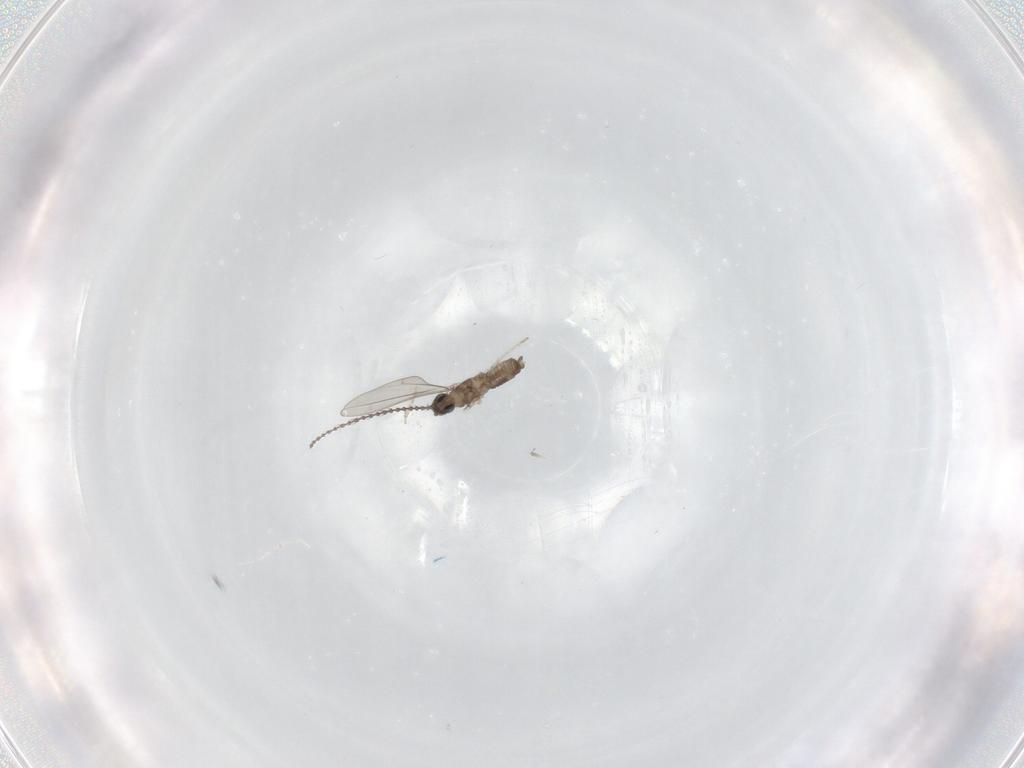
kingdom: Animalia
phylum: Arthropoda
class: Insecta
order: Diptera
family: Cecidomyiidae
